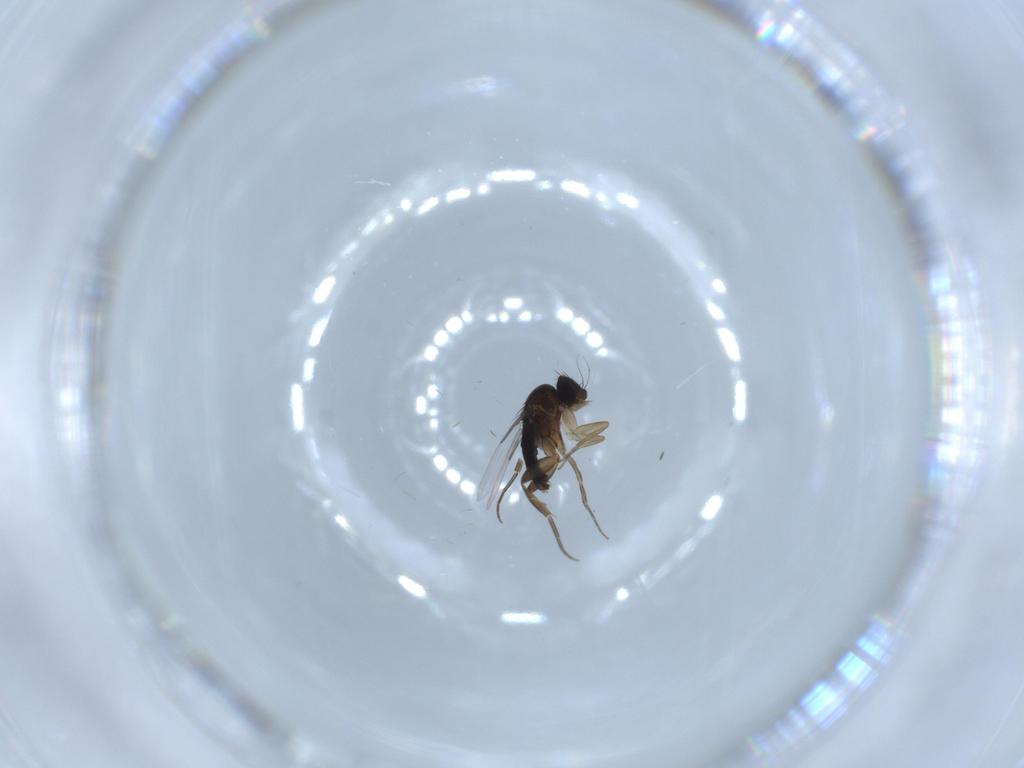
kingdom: Animalia
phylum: Arthropoda
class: Insecta
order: Diptera
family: Phoridae
